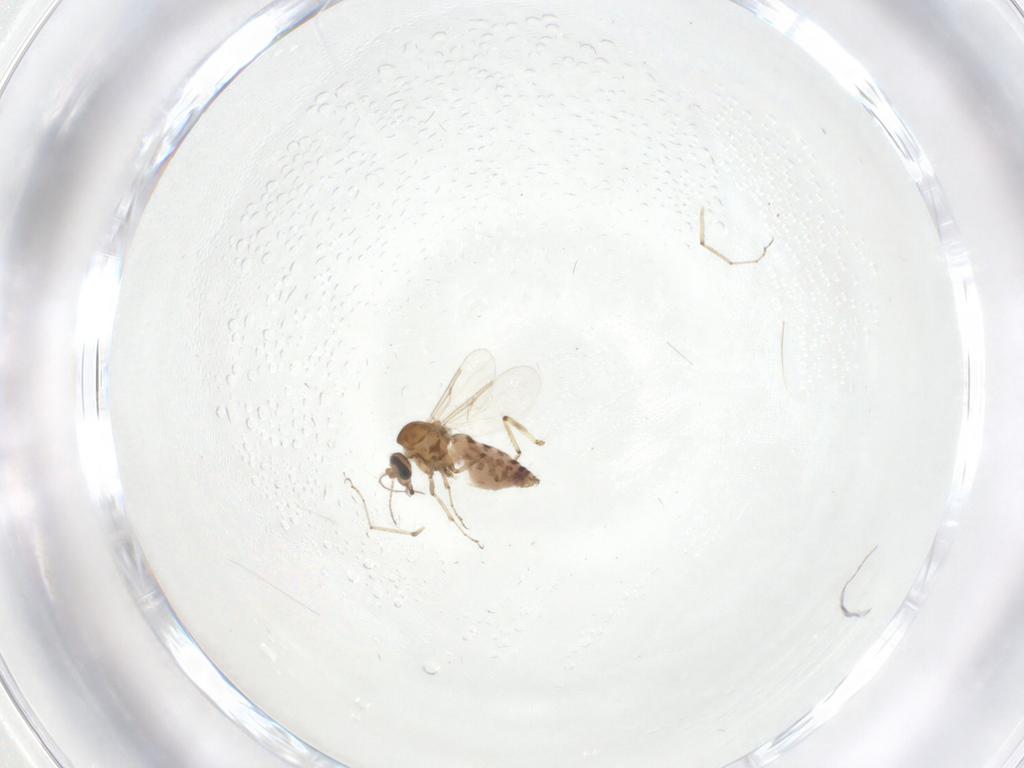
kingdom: Animalia
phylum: Arthropoda
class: Insecta
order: Diptera
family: Ceratopogonidae
